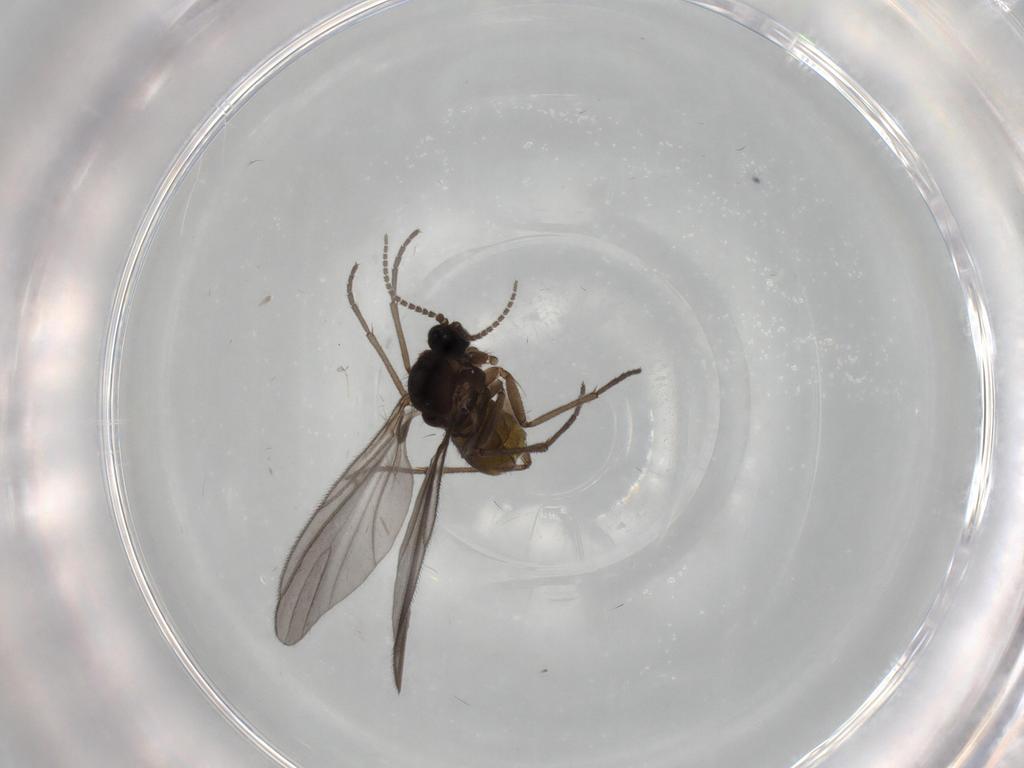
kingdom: Animalia
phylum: Arthropoda
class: Insecta
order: Diptera
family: Sciaridae
